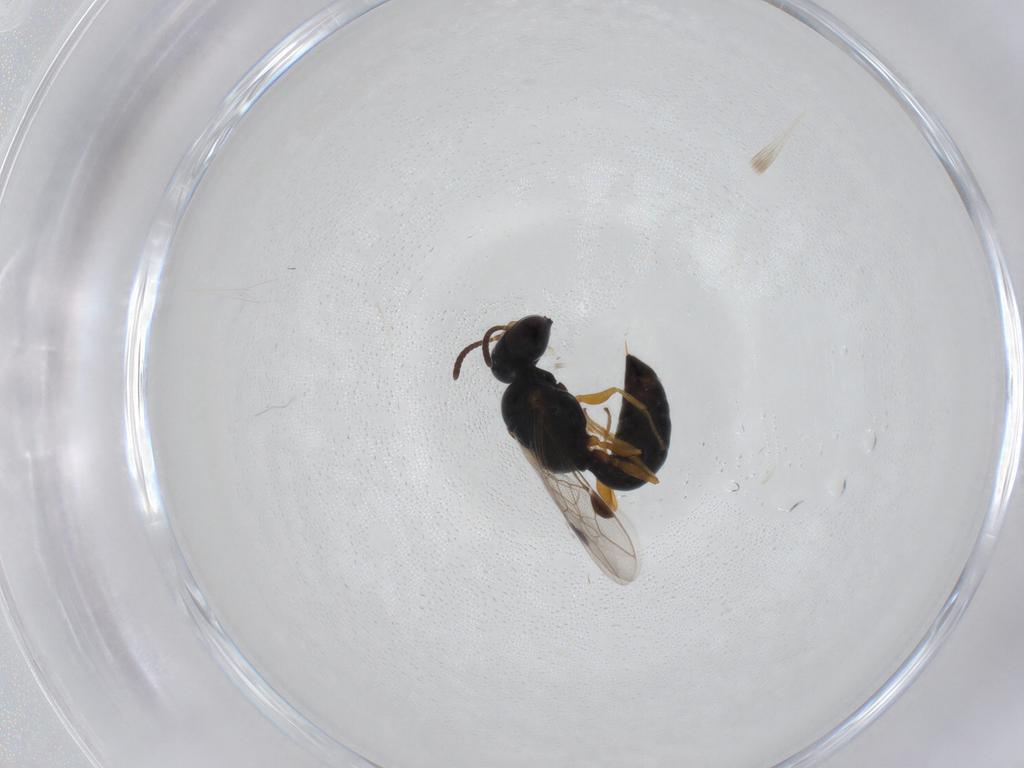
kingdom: Animalia
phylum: Arthropoda
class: Insecta
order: Hymenoptera
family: Crabronidae
